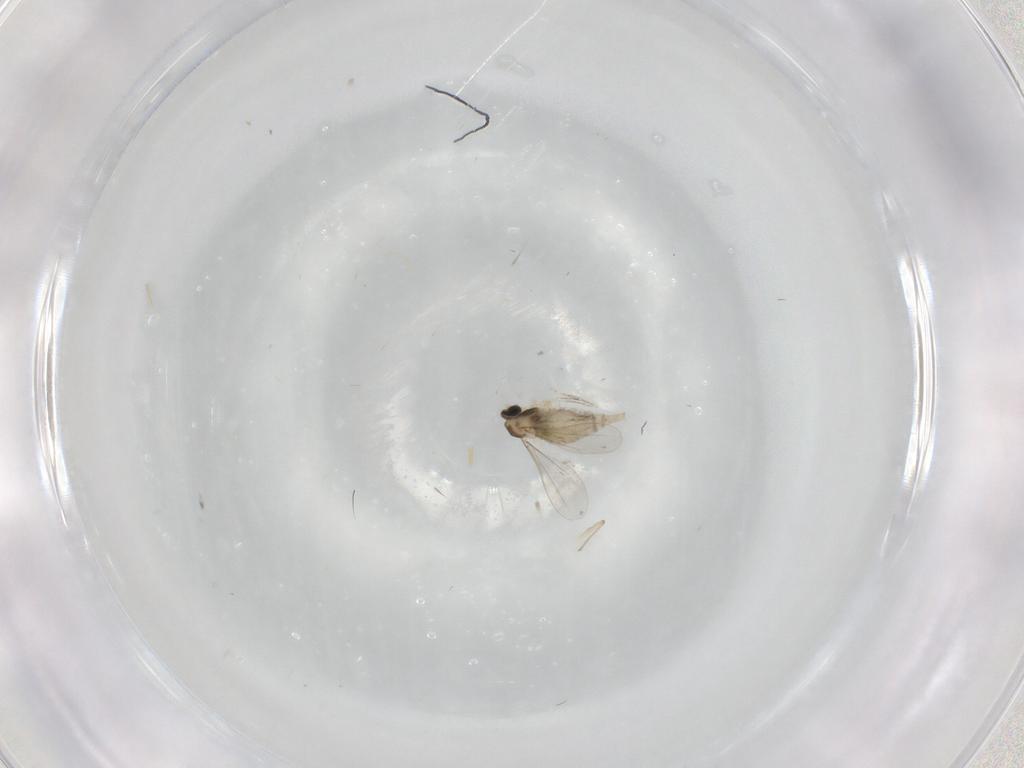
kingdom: Animalia
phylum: Arthropoda
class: Insecta
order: Diptera
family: Cecidomyiidae
